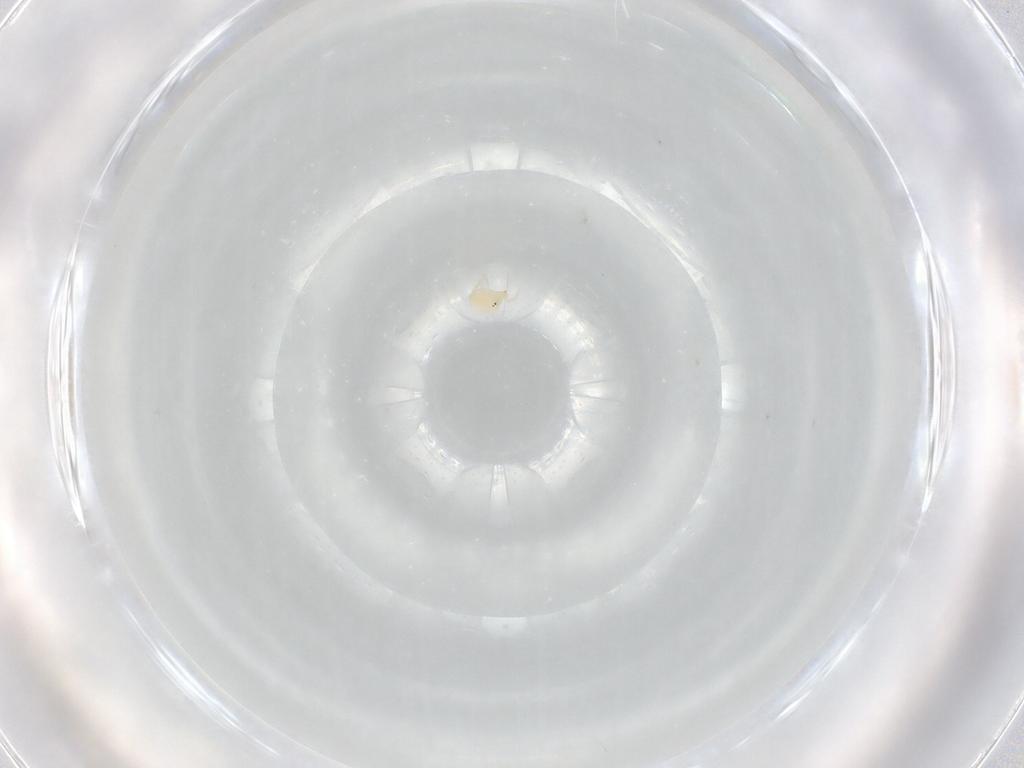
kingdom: Animalia
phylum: Arthropoda
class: Arachnida
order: Trombidiformes
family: Hydryphantidae
